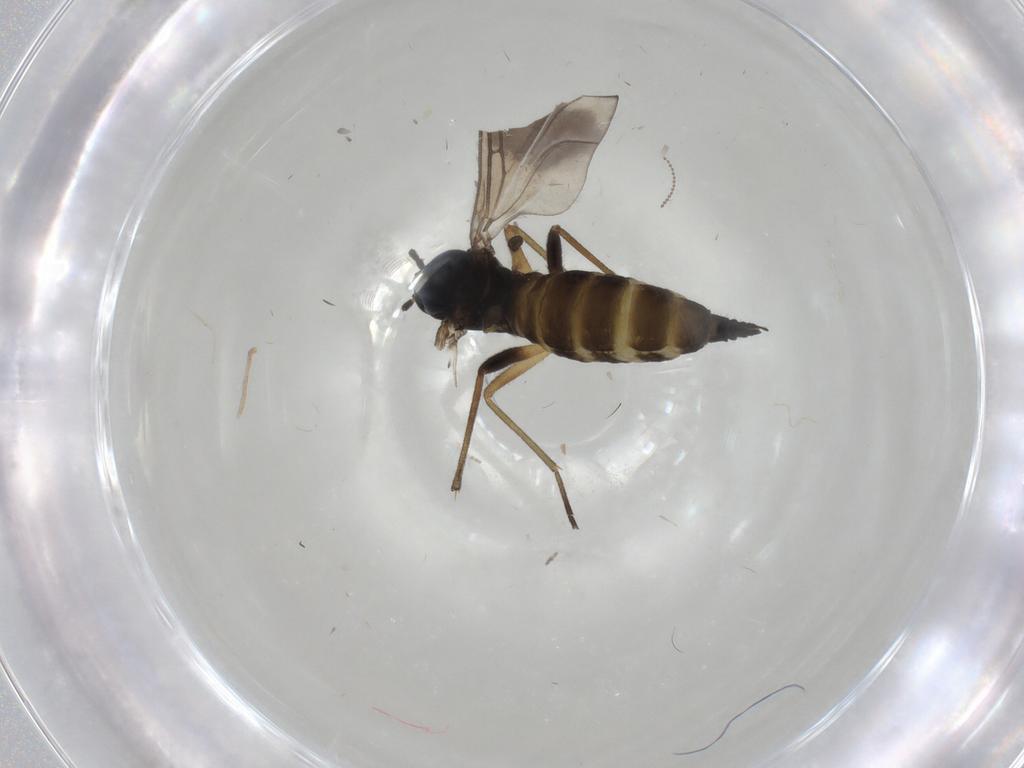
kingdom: Animalia
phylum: Arthropoda
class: Insecta
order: Diptera
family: Sciaridae
